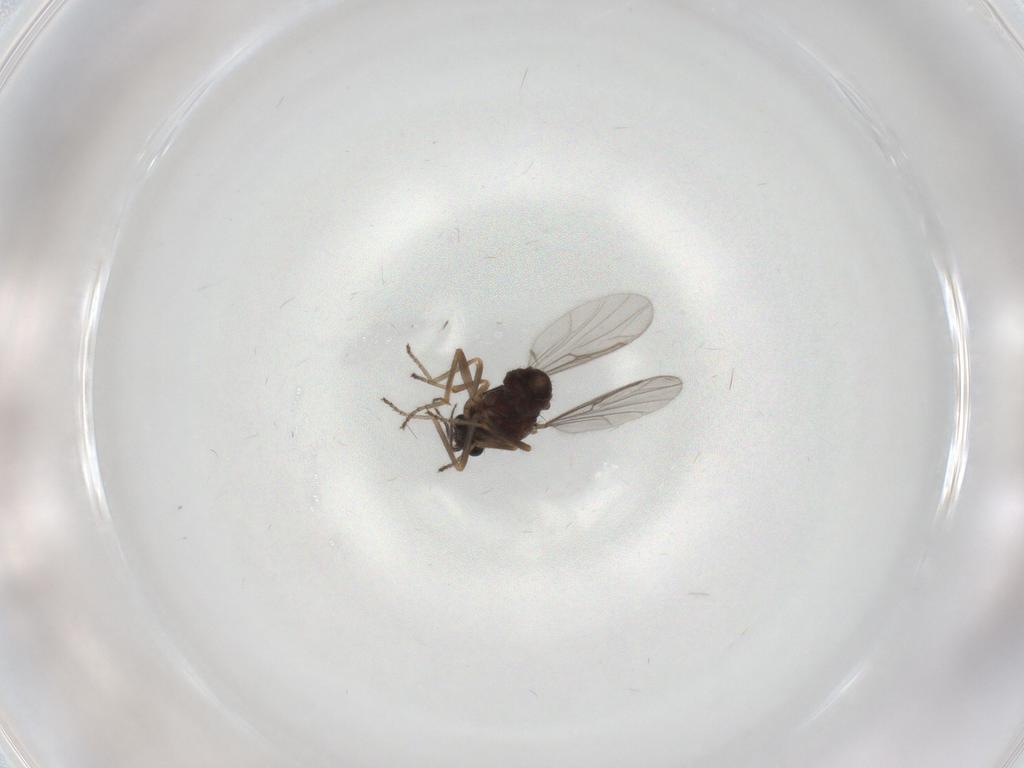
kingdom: Animalia
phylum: Arthropoda
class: Insecta
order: Diptera
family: Ceratopogonidae
